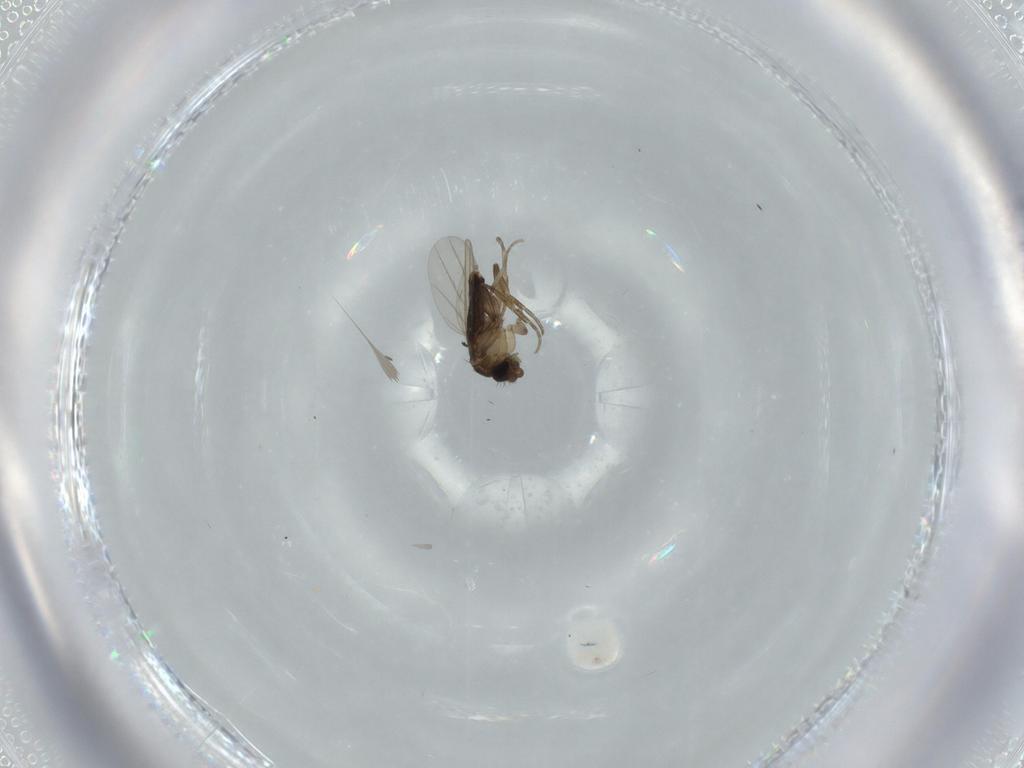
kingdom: Animalia
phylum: Arthropoda
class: Insecta
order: Diptera
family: Phoridae
